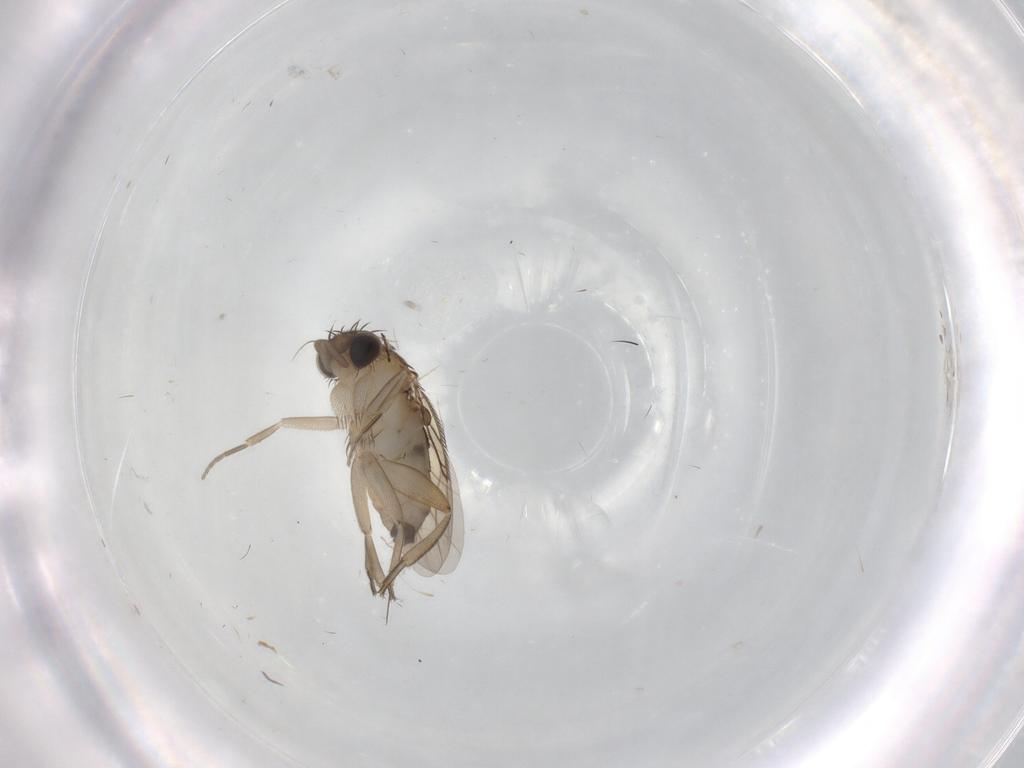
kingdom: Animalia
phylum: Arthropoda
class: Insecta
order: Diptera
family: Phoridae
